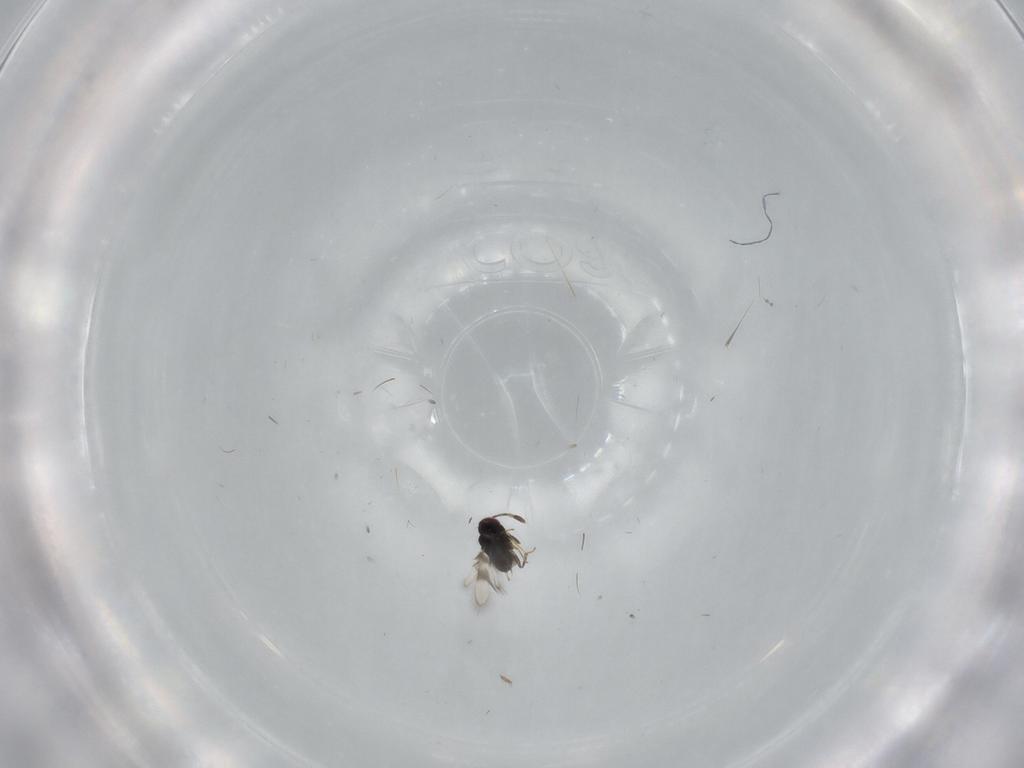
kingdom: Animalia
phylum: Arthropoda
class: Insecta
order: Hymenoptera
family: Azotidae
